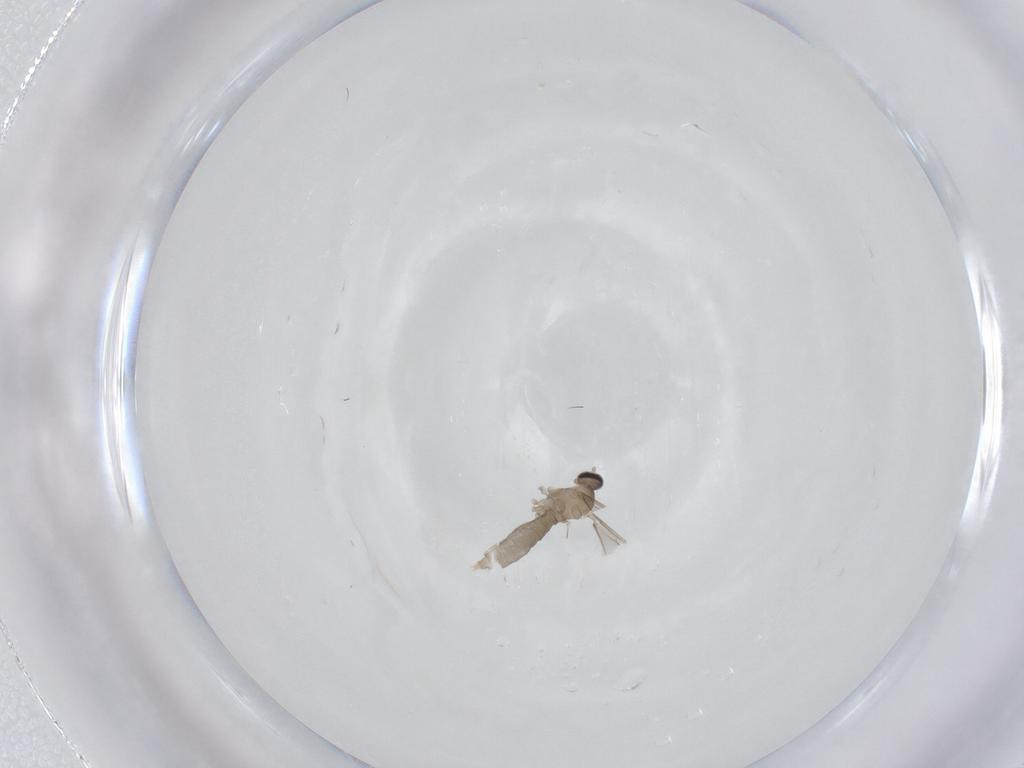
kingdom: Animalia
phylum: Arthropoda
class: Insecta
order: Diptera
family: Cecidomyiidae
